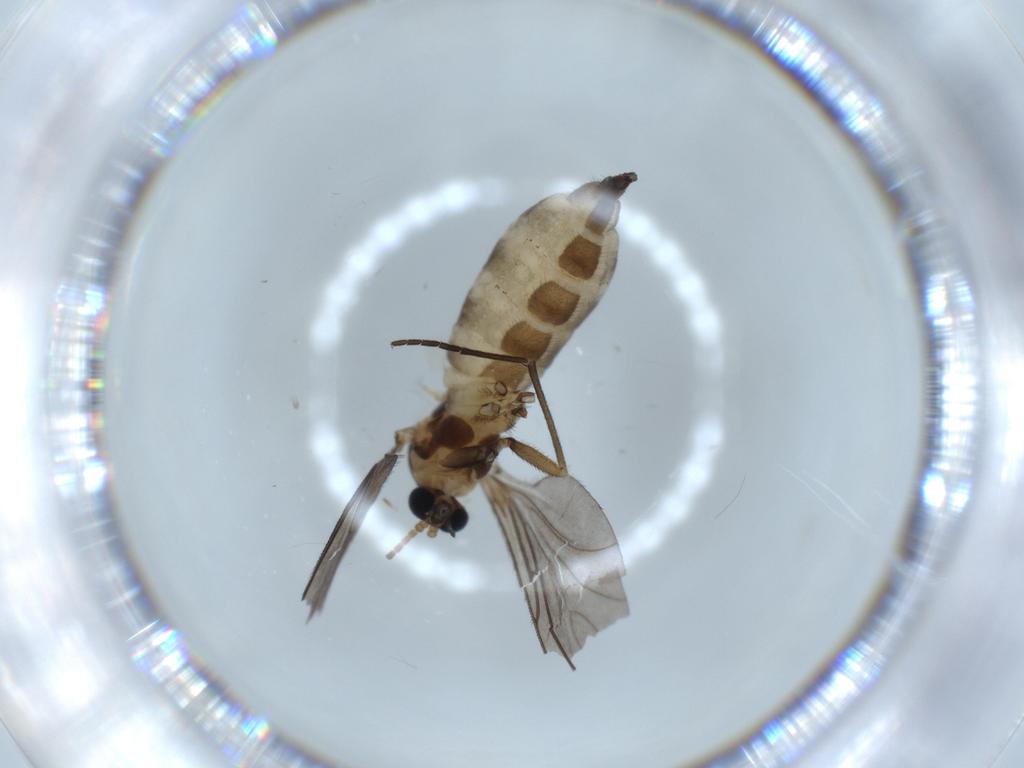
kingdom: Animalia
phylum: Arthropoda
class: Insecta
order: Diptera
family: Sciaridae
